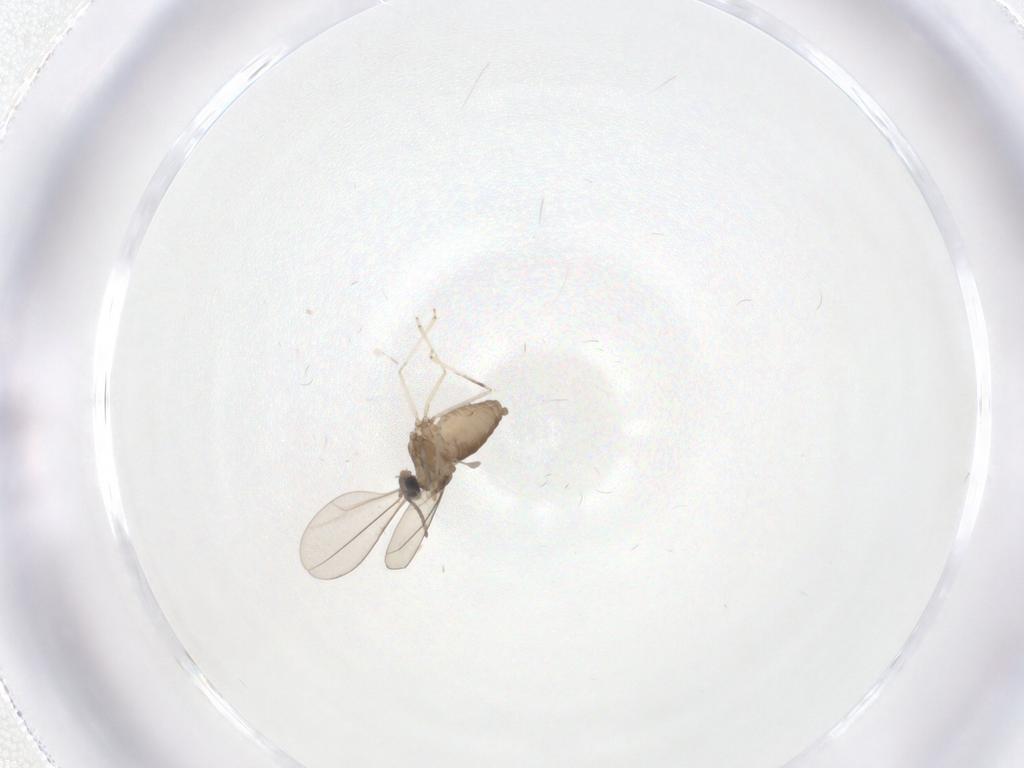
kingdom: Animalia
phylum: Arthropoda
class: Insecta
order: Diptera
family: Cecidomyiidae
